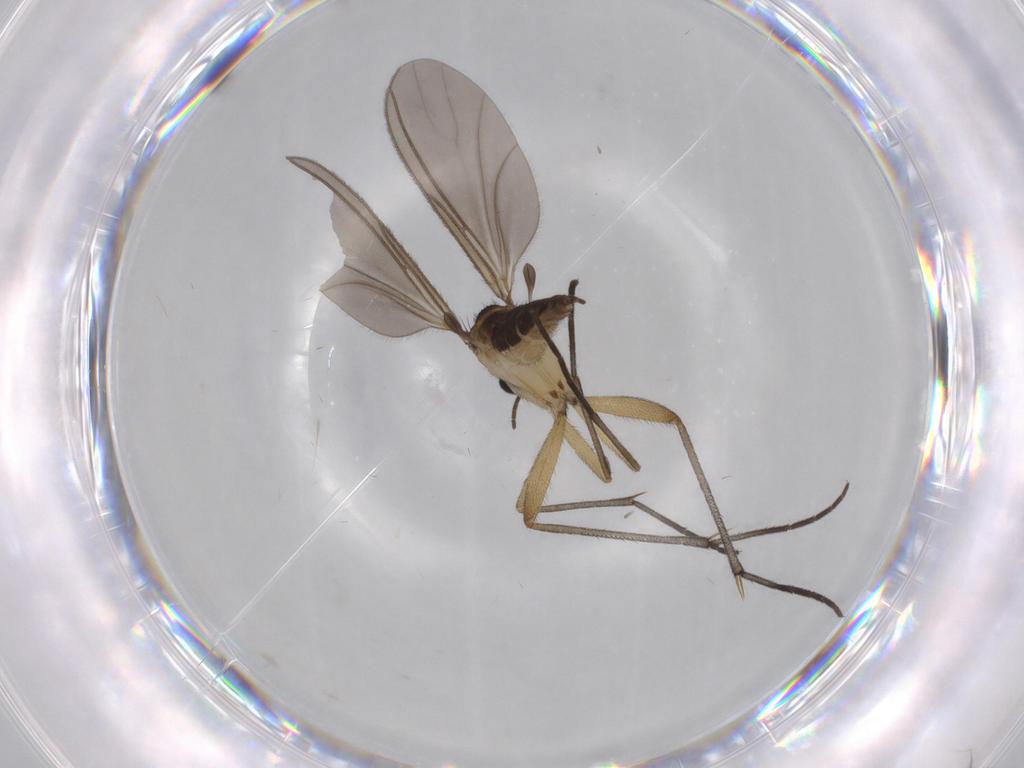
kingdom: Animalia
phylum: Arthropoda
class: Insecta
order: Diptera
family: Sciaridae
